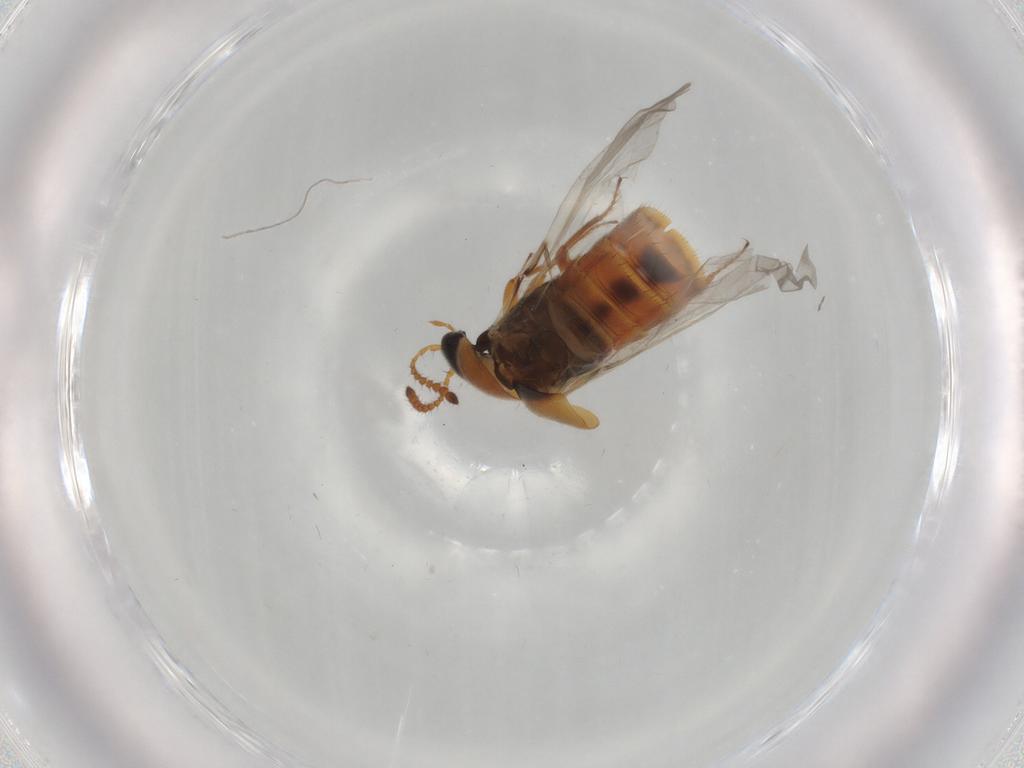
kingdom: Animalia
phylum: Arthropoda
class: Insecta
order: Coleoptera
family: Staphylinidae
